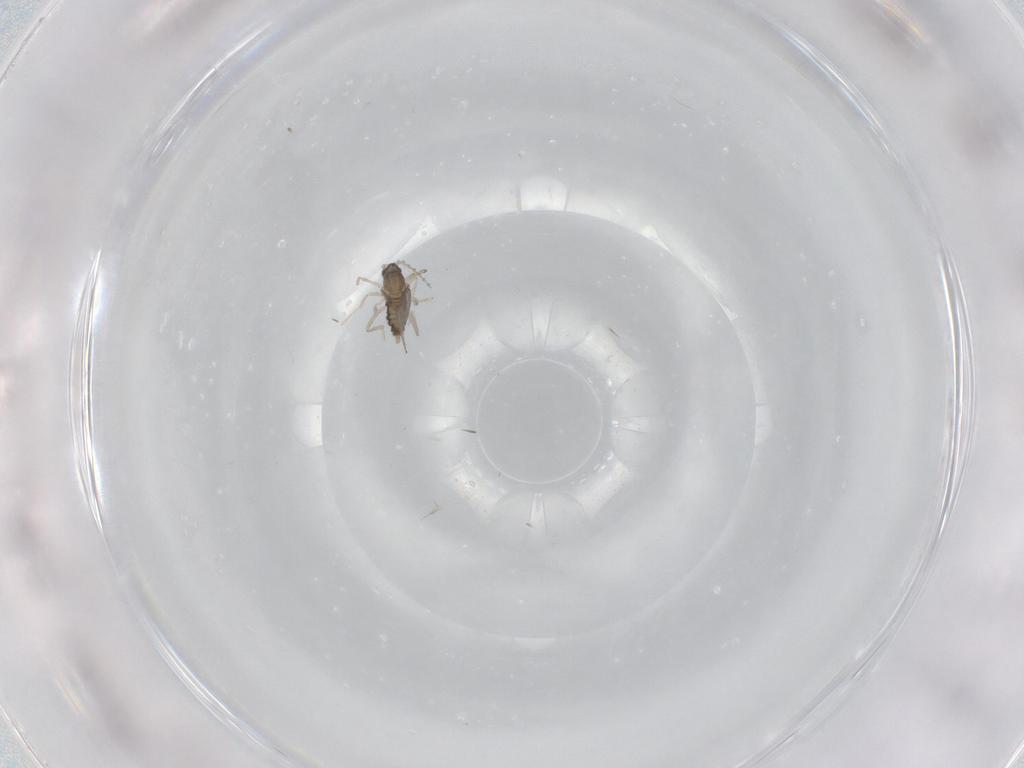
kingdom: Animalia
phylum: Arthropoda
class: Insecta
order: Diptera
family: Cecidomyiidae
